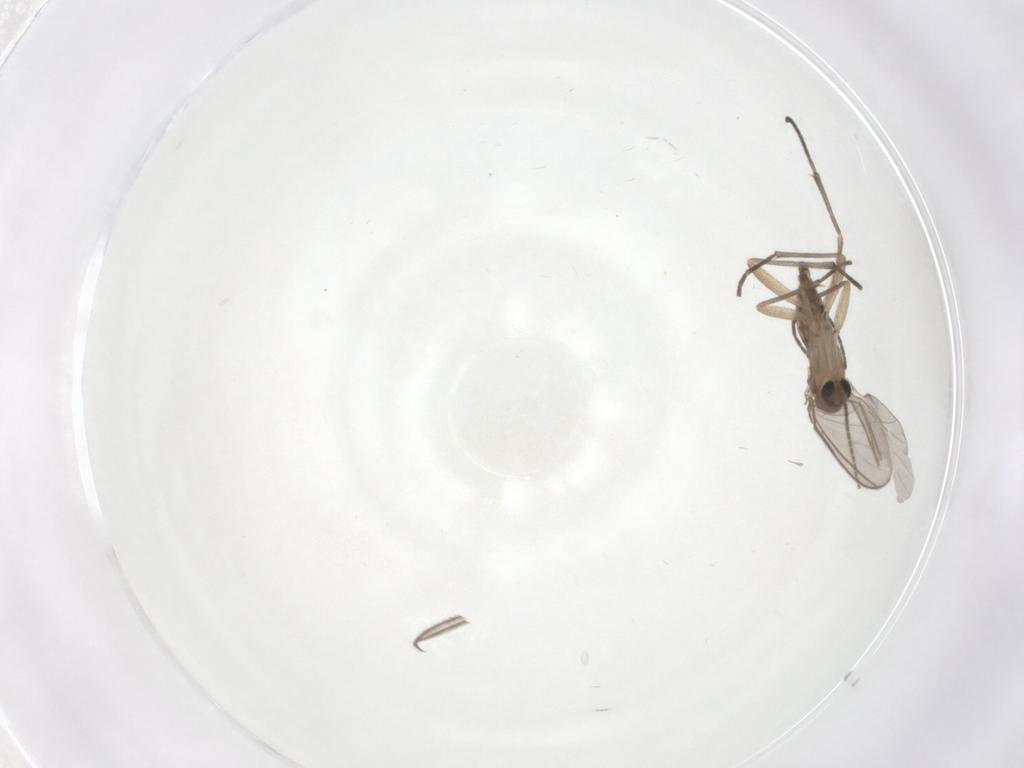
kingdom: Animalia
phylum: Arthropoda
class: Insecta
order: Diptera
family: Sciaridae
